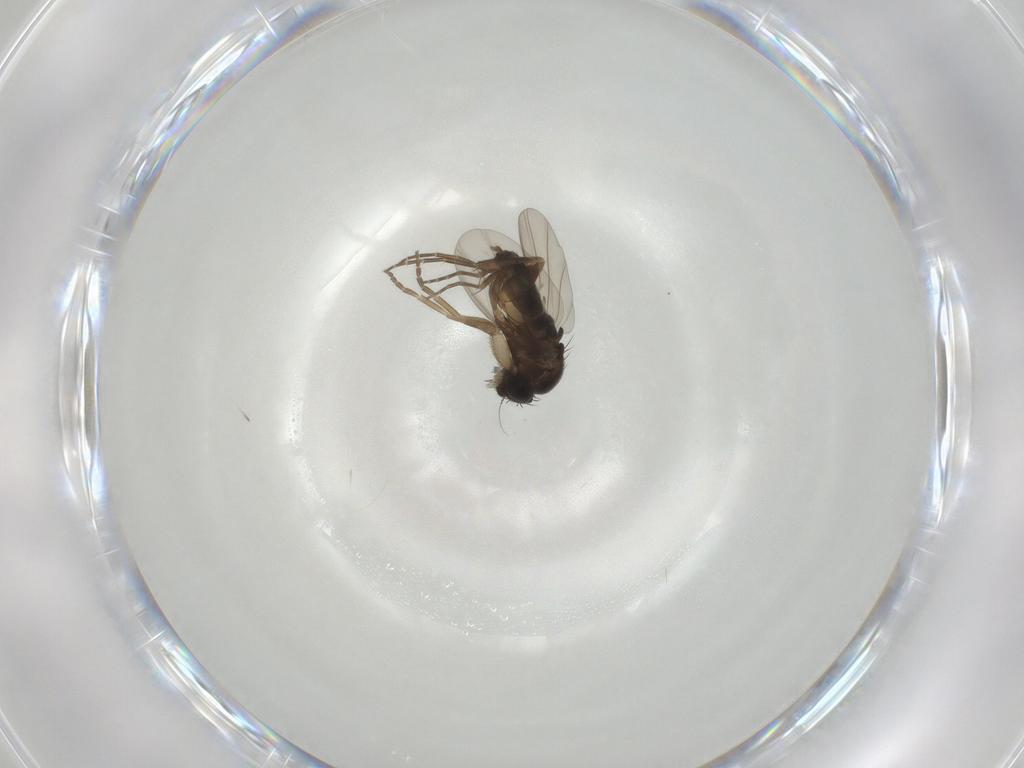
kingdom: Animalia
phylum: Arthropoda
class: Insecta
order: Diptera
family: Phoridae
